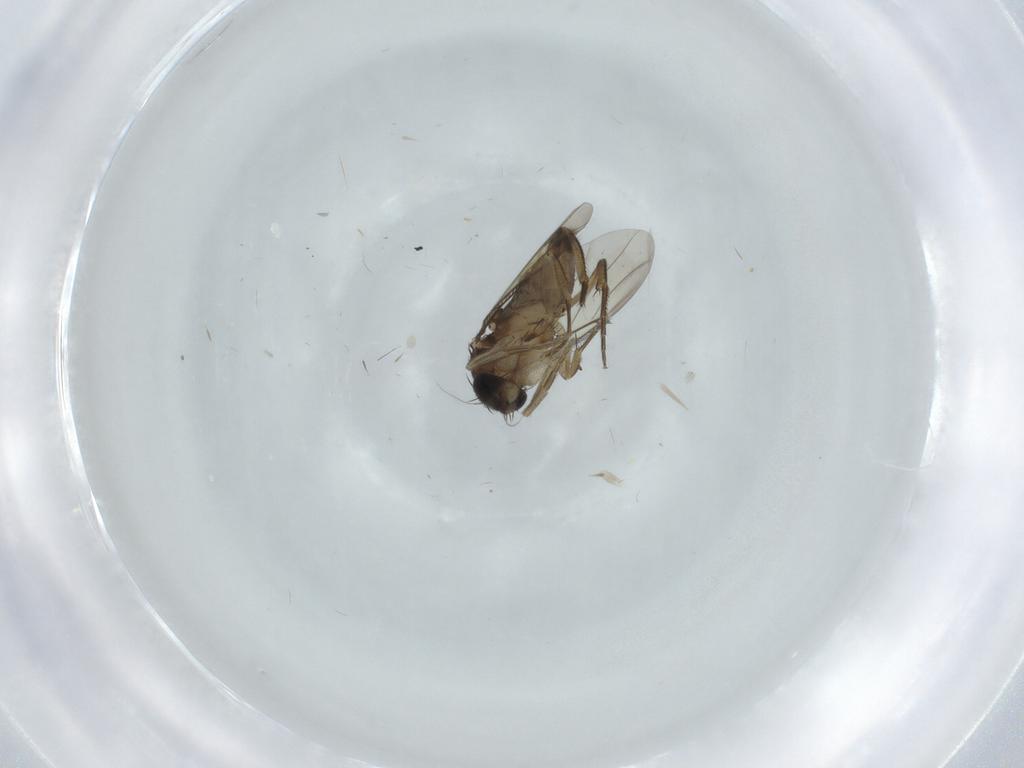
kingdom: Animalia
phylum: Arthropoda
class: Insecta
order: Diptera
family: Phoridae
